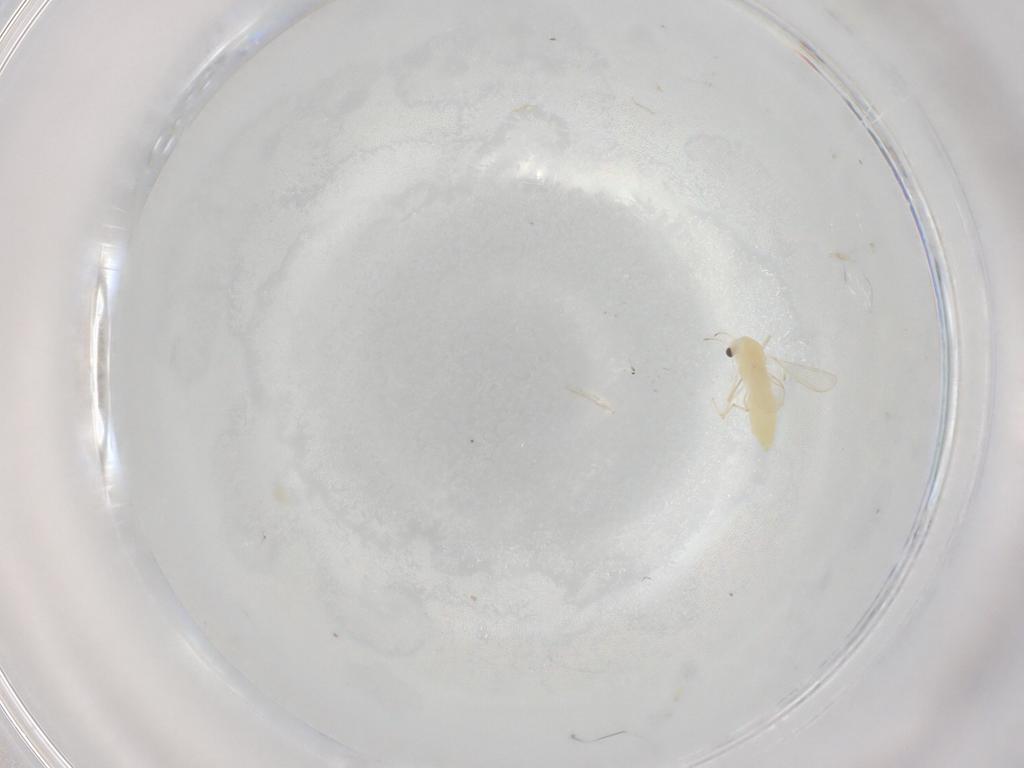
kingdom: Animalia
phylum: Arthropoda
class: Insecta
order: Diptera
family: Chironomidae
